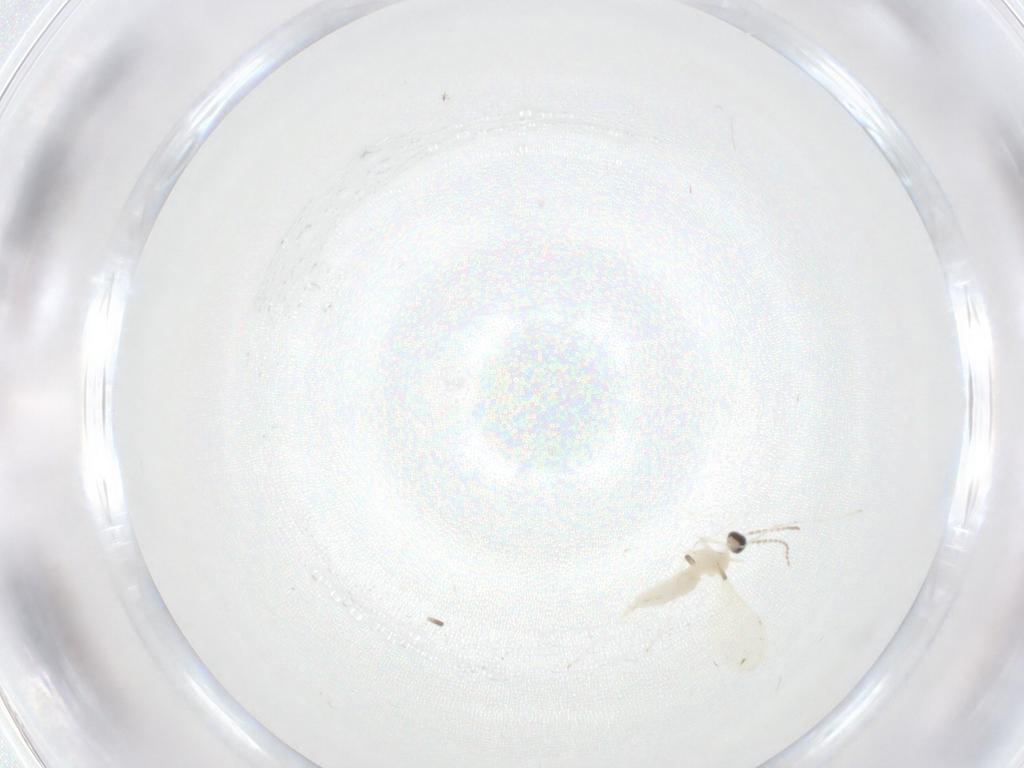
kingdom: Animalia
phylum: Arthropoda
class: Insecta
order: Diptera
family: Cecidomyiidae
